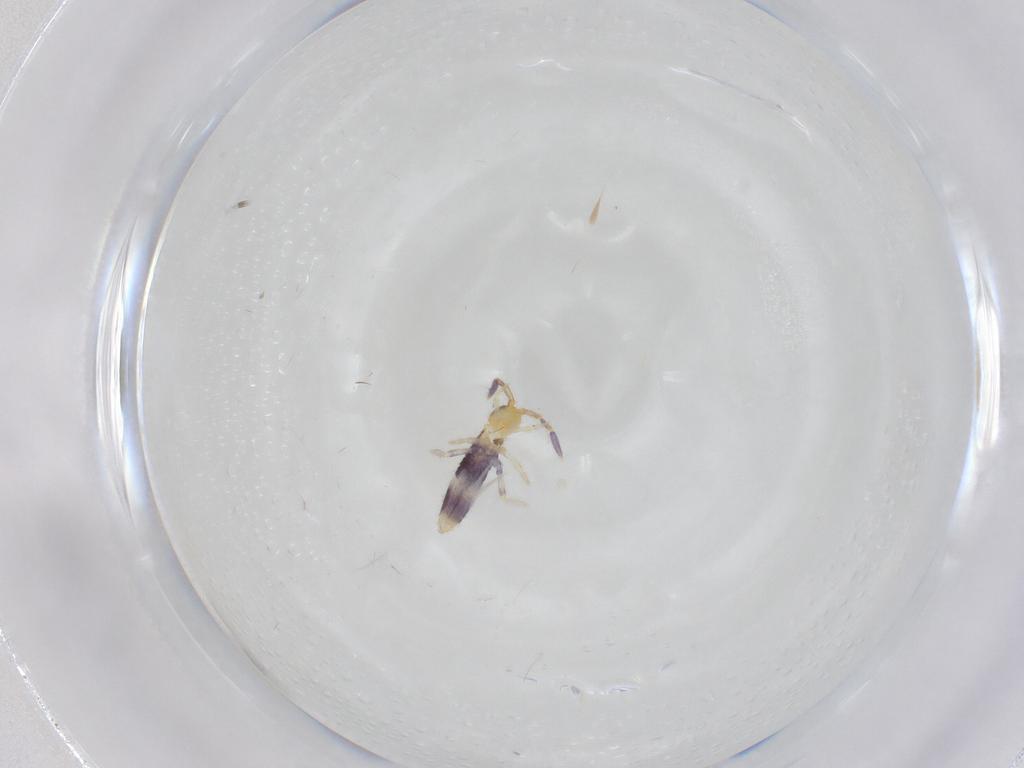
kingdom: Animalia
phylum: Arthropoda
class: Collembola
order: Entomobryomorpha
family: Entomobryidae
